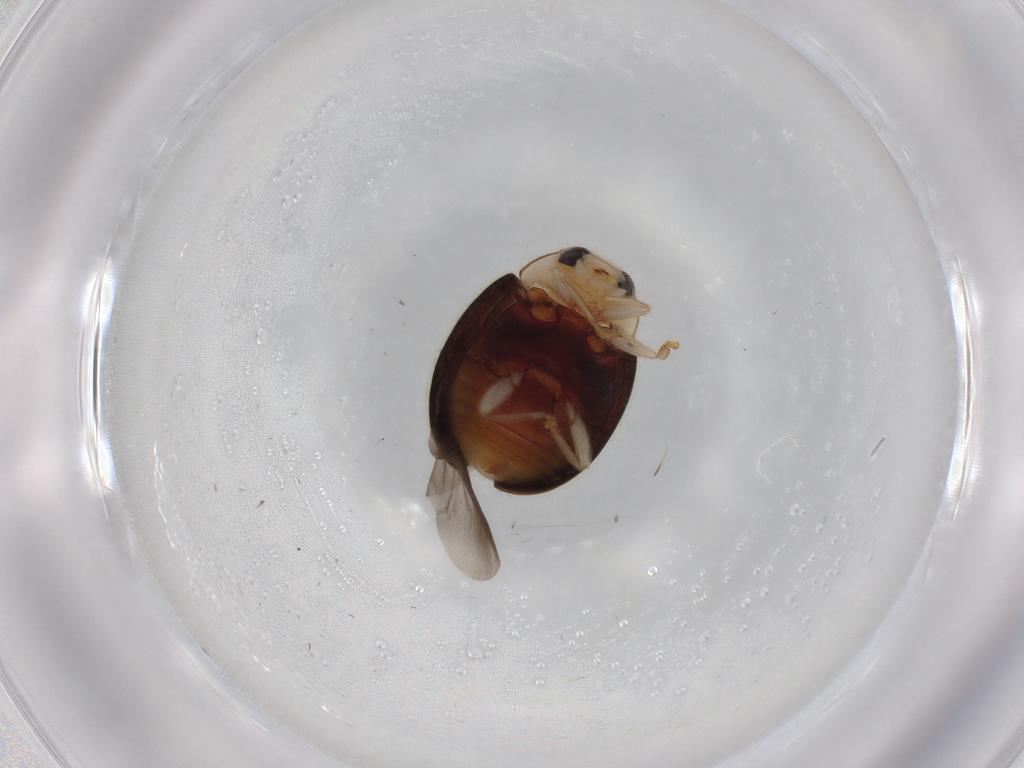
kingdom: Animalia
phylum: Arthropoda
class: Insecta
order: Coleoptera
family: Coccinellidae
